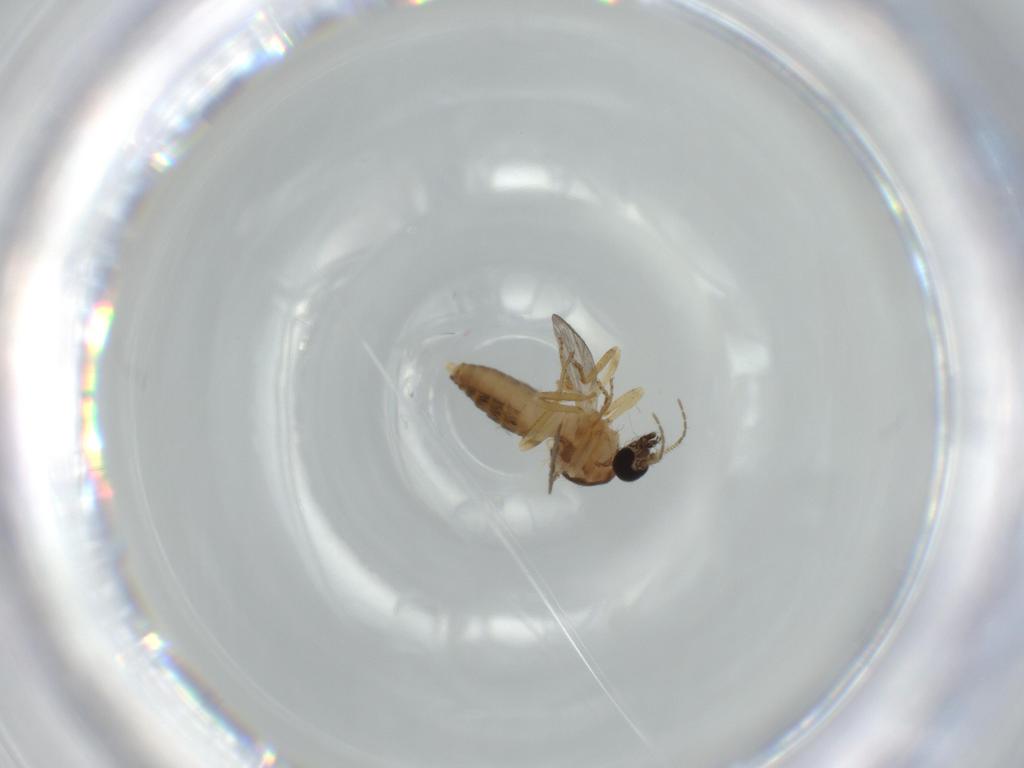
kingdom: Animalia
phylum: Arthropoda
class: Insecta
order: Diptera
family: Ceratopogonidae
